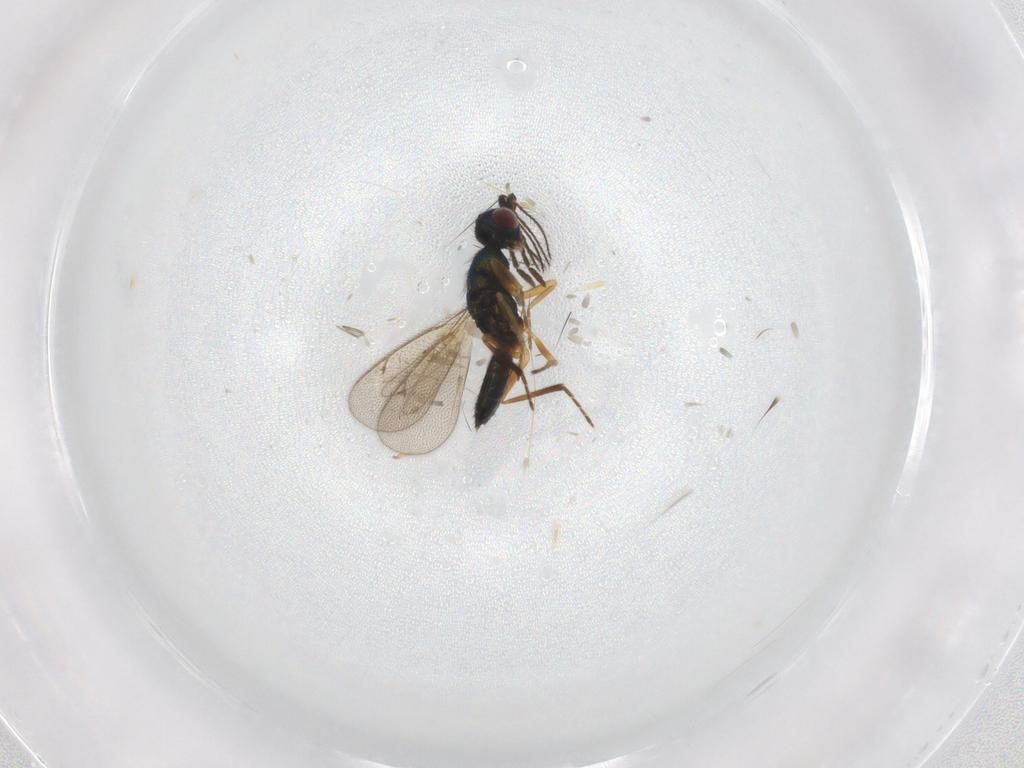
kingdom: Animalia
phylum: Arthropoda
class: Insecta
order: Hymenoptera
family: Eulophidae
